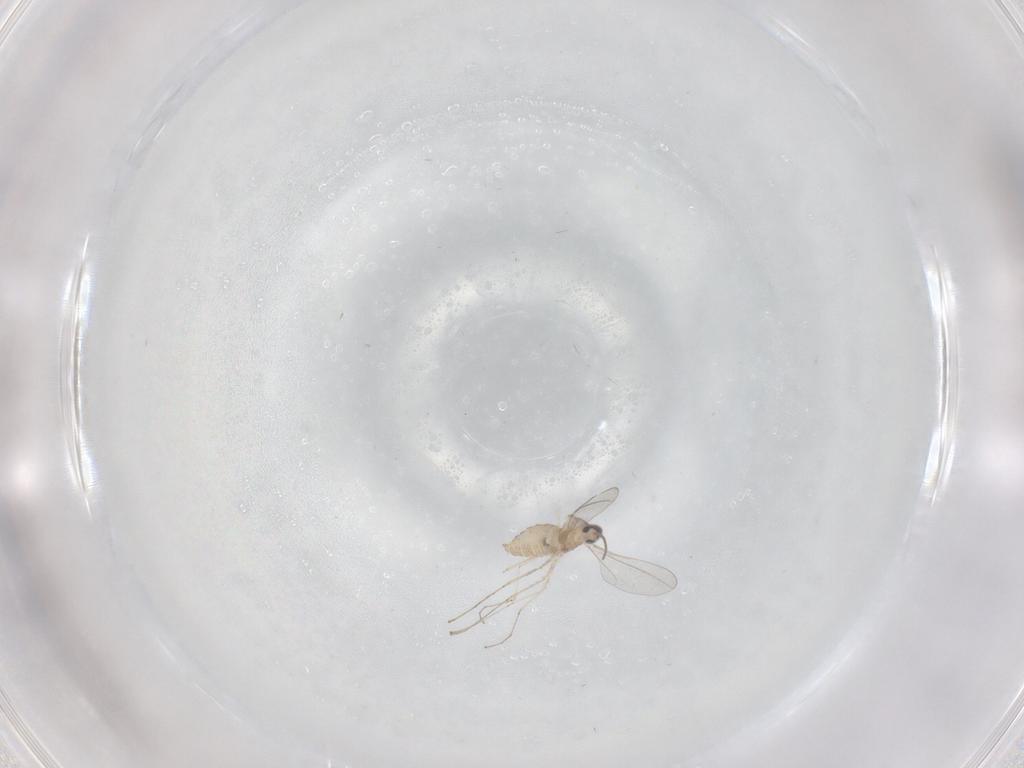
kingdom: Animalia
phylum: Arthropoda
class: Insecta
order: Diptera
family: Cecidomyiidae
